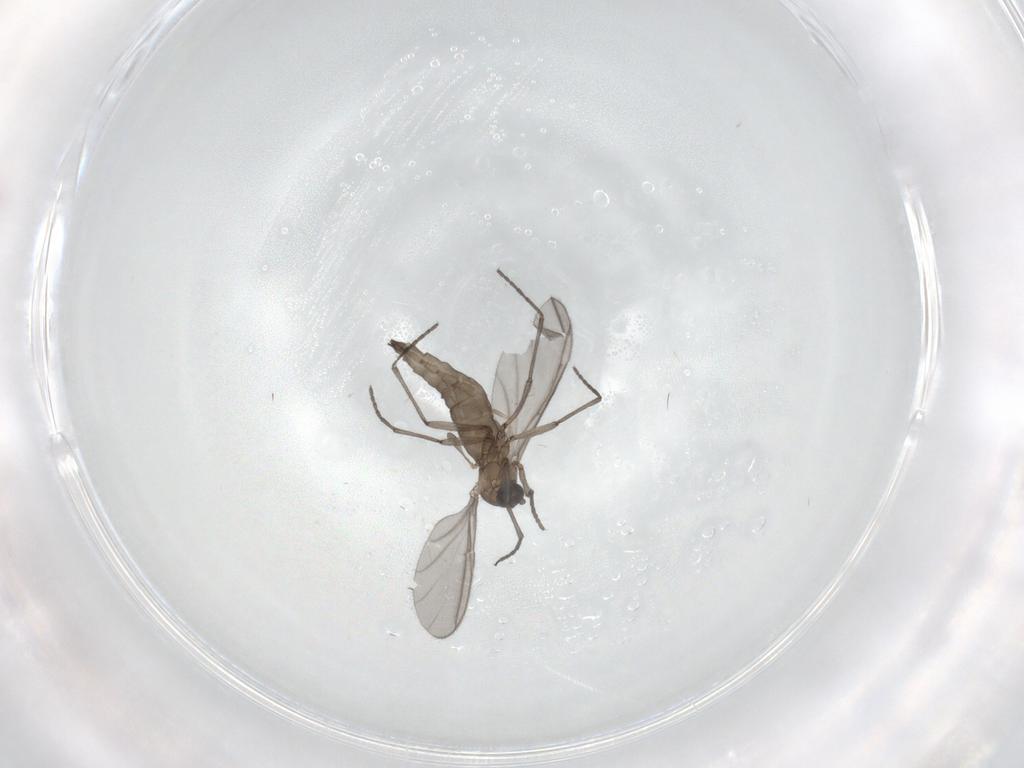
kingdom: Animalia
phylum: Arthropoda
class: Insecta
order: Diptera
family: Sciaridae
